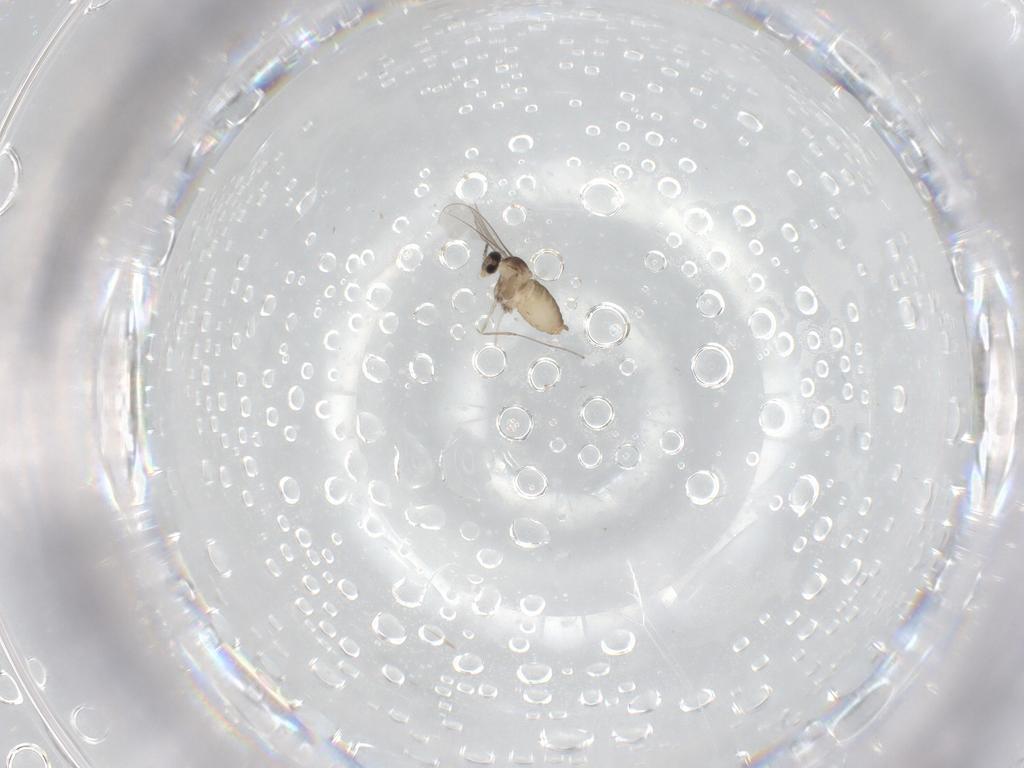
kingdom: Animalia
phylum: Arthropoda
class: Insecta
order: Diptera
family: Cecidomyiidae
